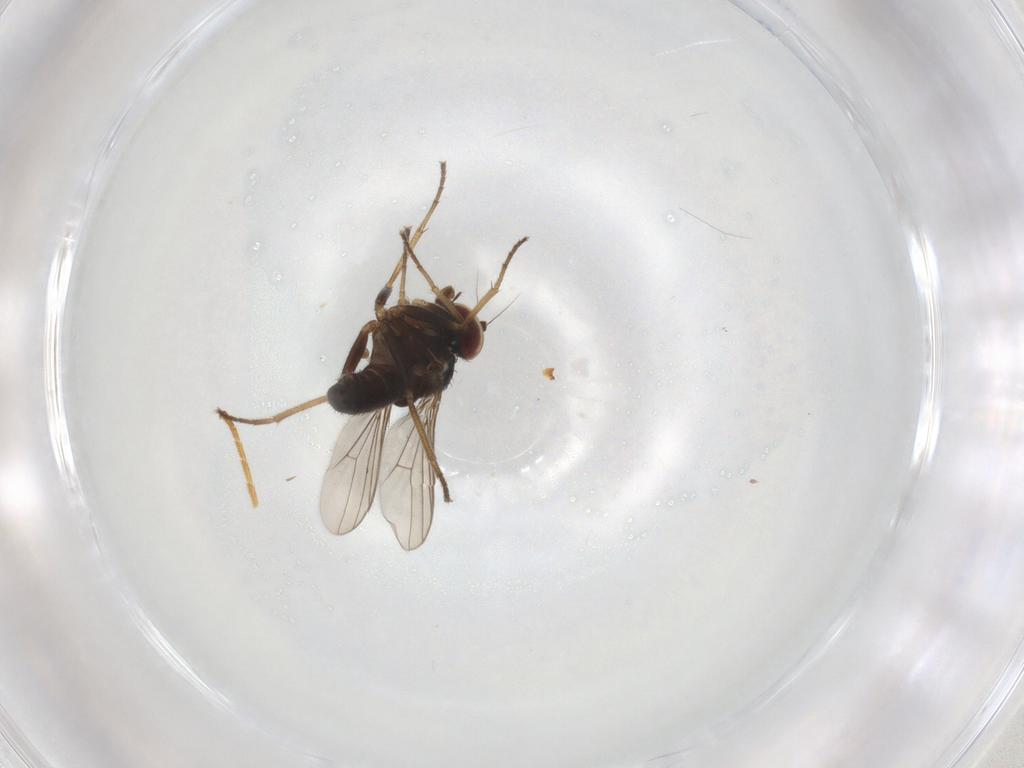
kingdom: Animalia
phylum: Arthropoda
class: Insecta
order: Diptera
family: Dolichopodidae
